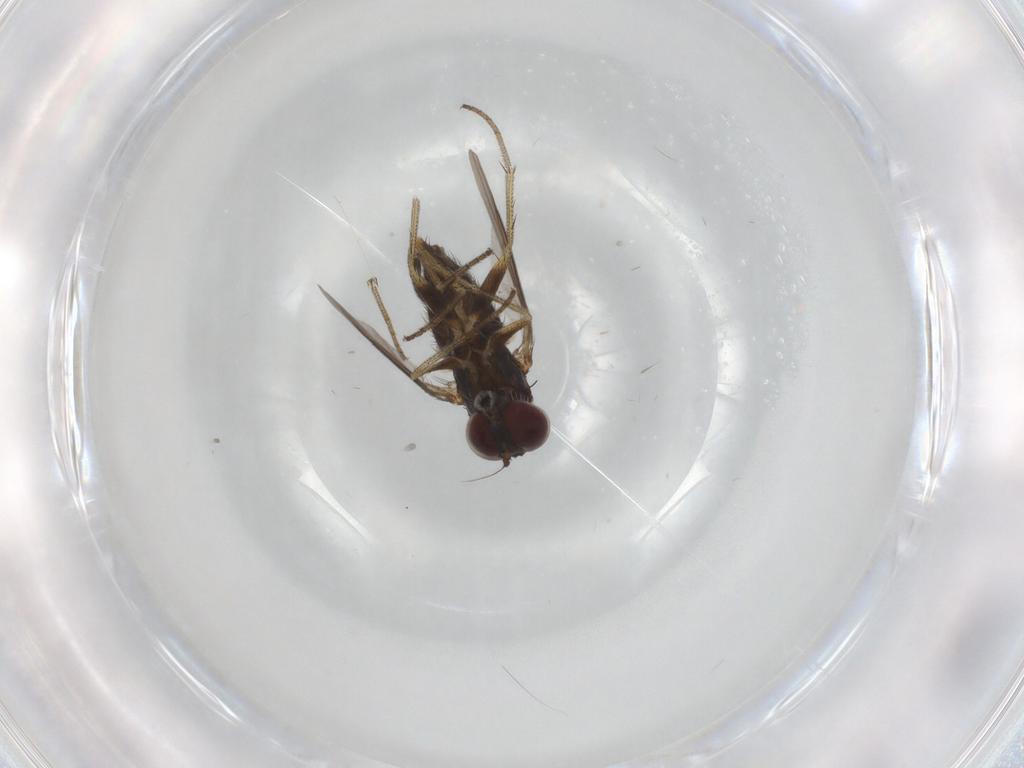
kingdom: Animalia
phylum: Arthropoda
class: Insecta
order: Diptera
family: Dolichopodidae
